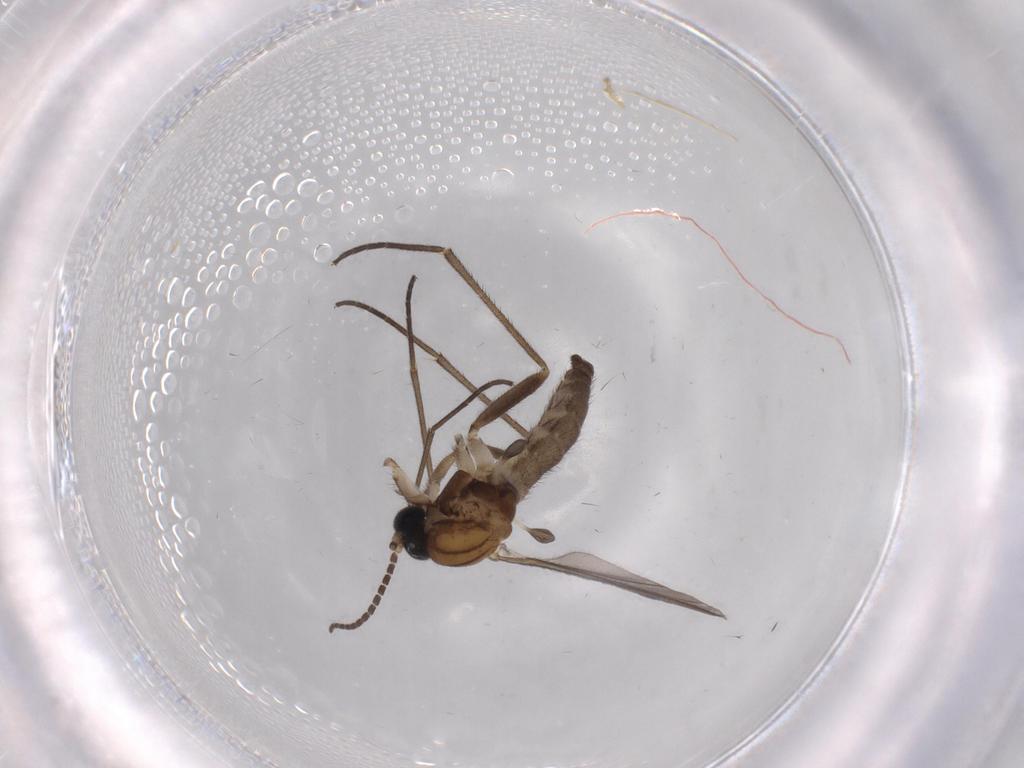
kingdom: Animalia
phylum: Arthropoda
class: Insecta
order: Diptera
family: Sciaridae
